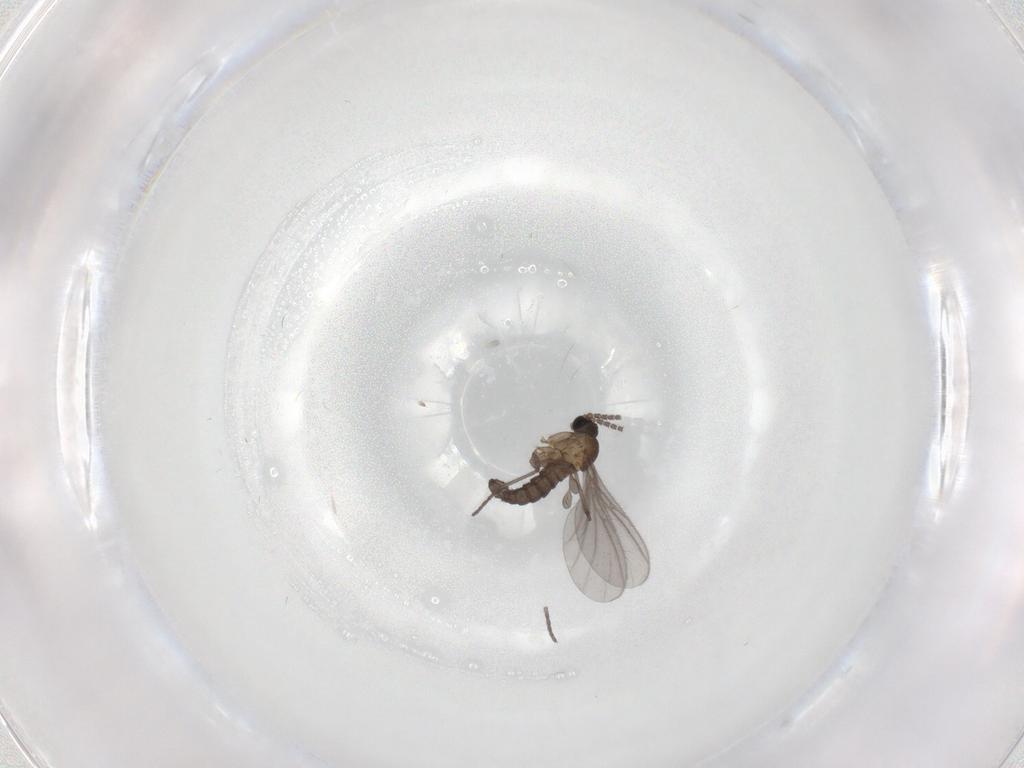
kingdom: Animalia
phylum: Arthropoda
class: Insecta
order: Diptera
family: Sciaridae
